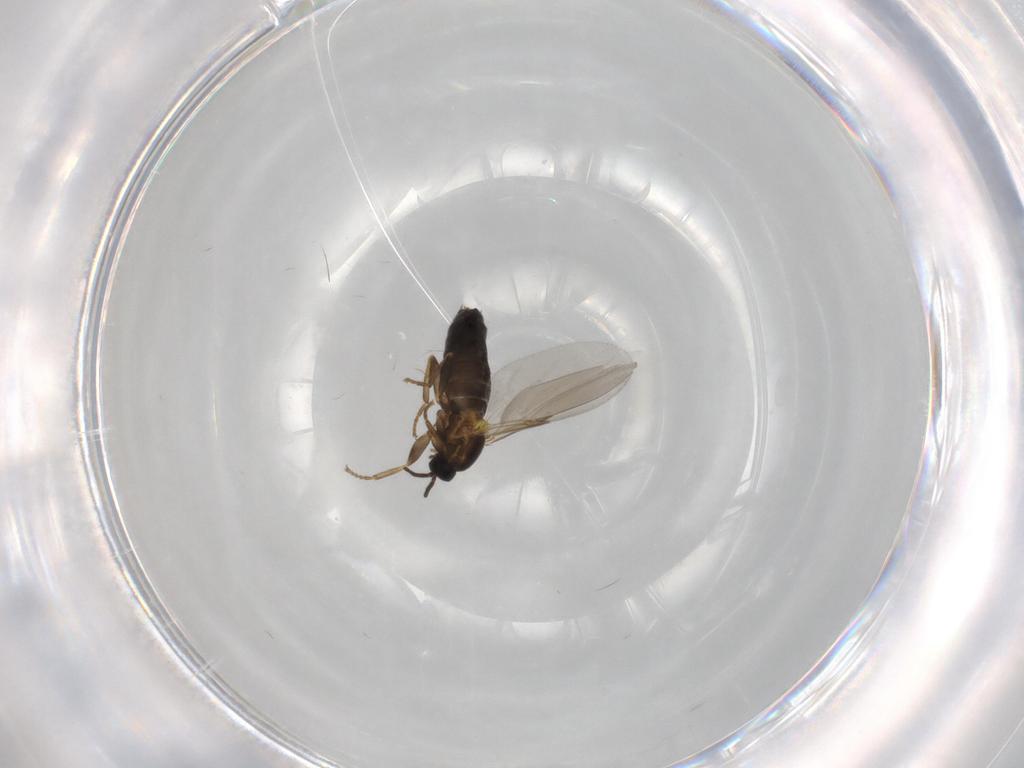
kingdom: Animalia
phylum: Arthropoda
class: Insecta
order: Diptera
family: Scatopsidae
